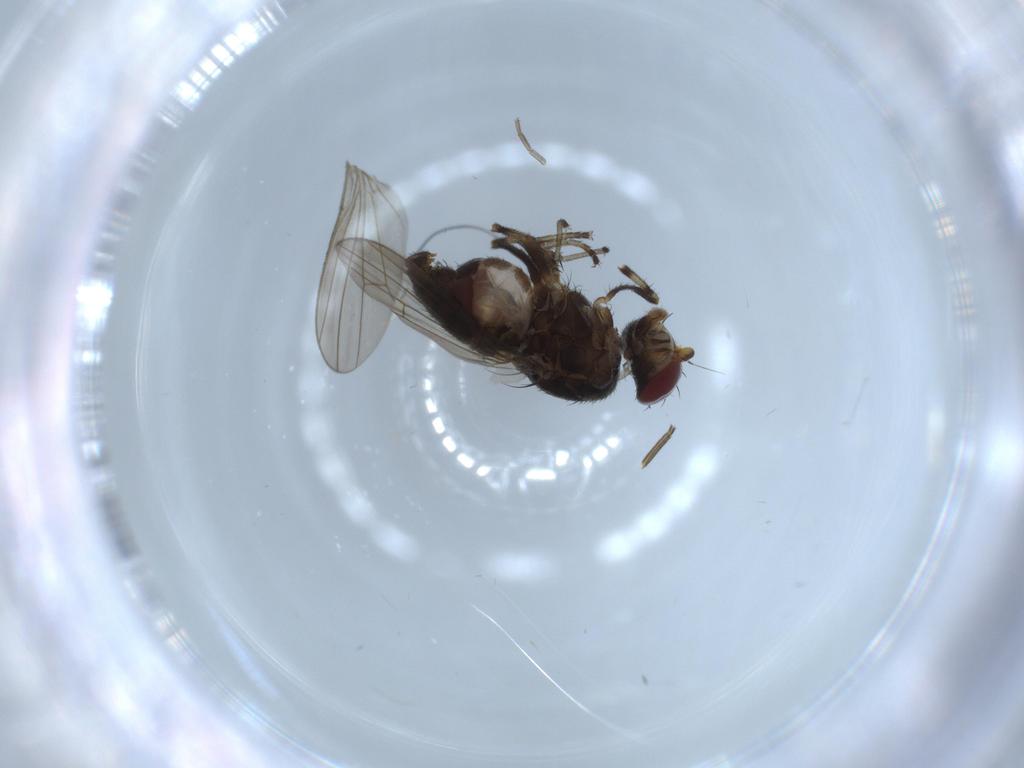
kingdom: Animalia
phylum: Arthropoda
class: Insecta
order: Diptera
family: Heleomyzidae
